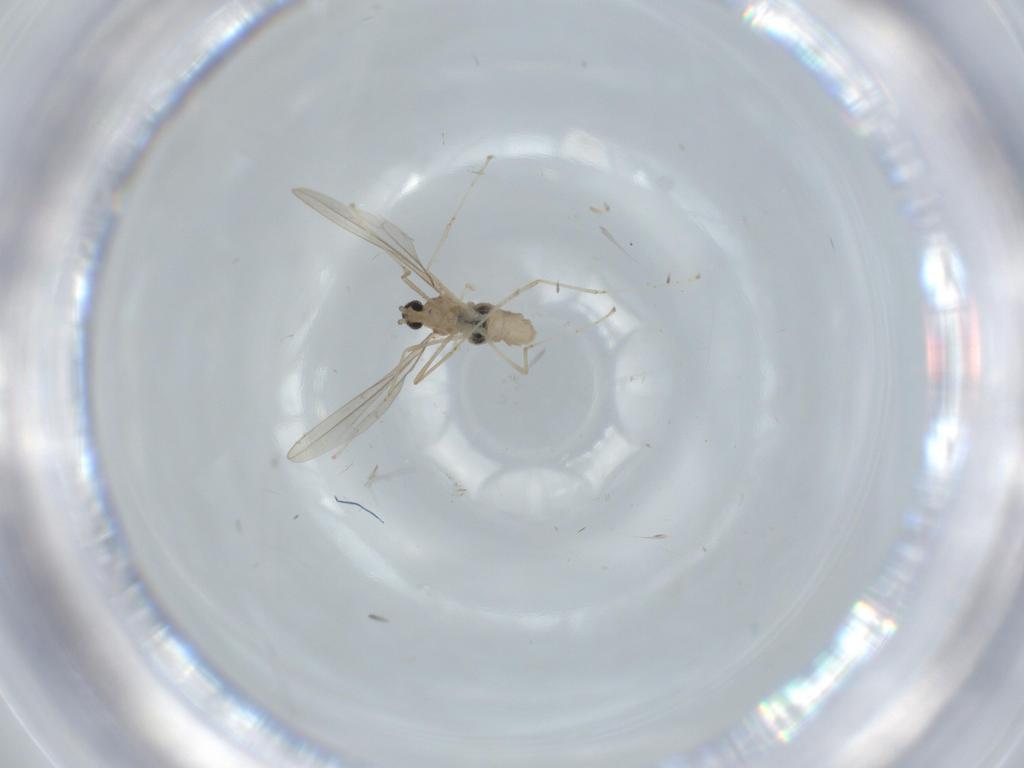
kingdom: Animalia
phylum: Arthropoda
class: Insecta
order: Diptera
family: Cecidomyiidae
